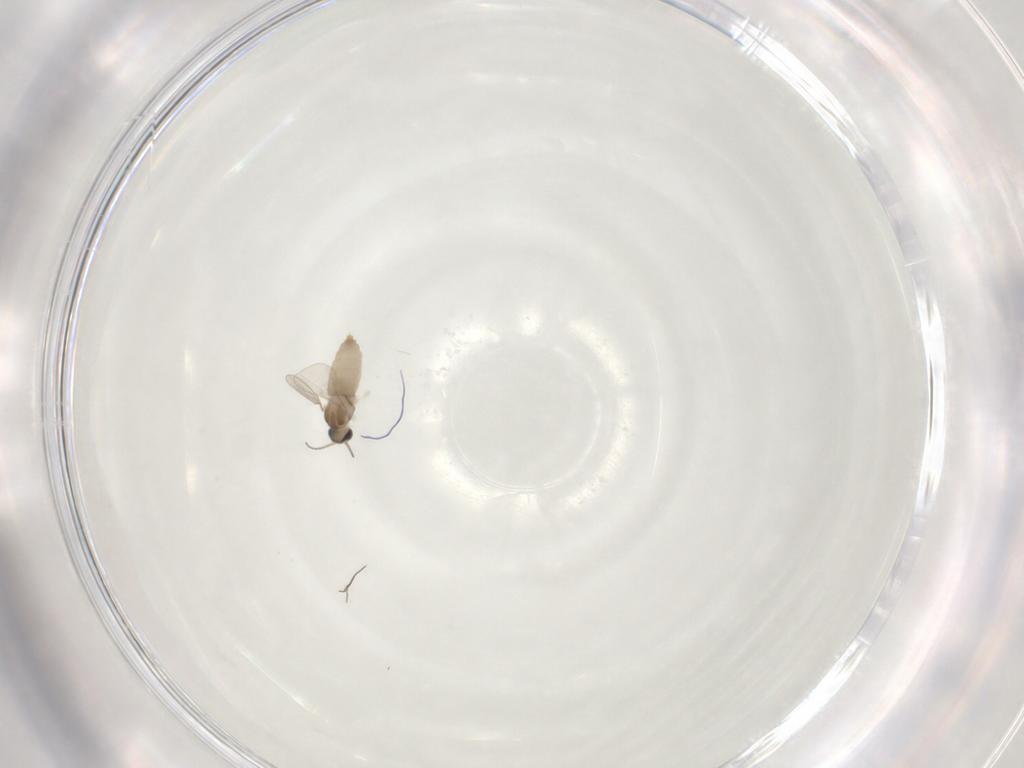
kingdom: Animalia
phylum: Arthropoda
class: Insecta
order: Diptera
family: Cecidomyiidae
